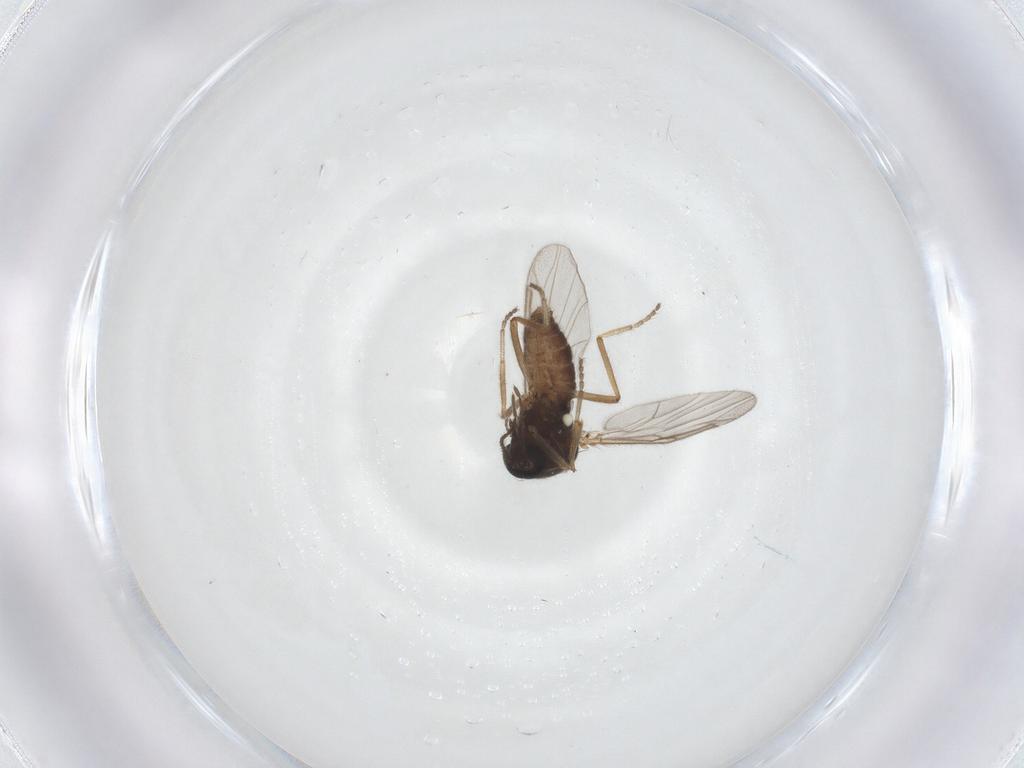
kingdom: Animalia
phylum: Arthropoda
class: Insecta
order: Diptera
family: Ceratopogonidae
